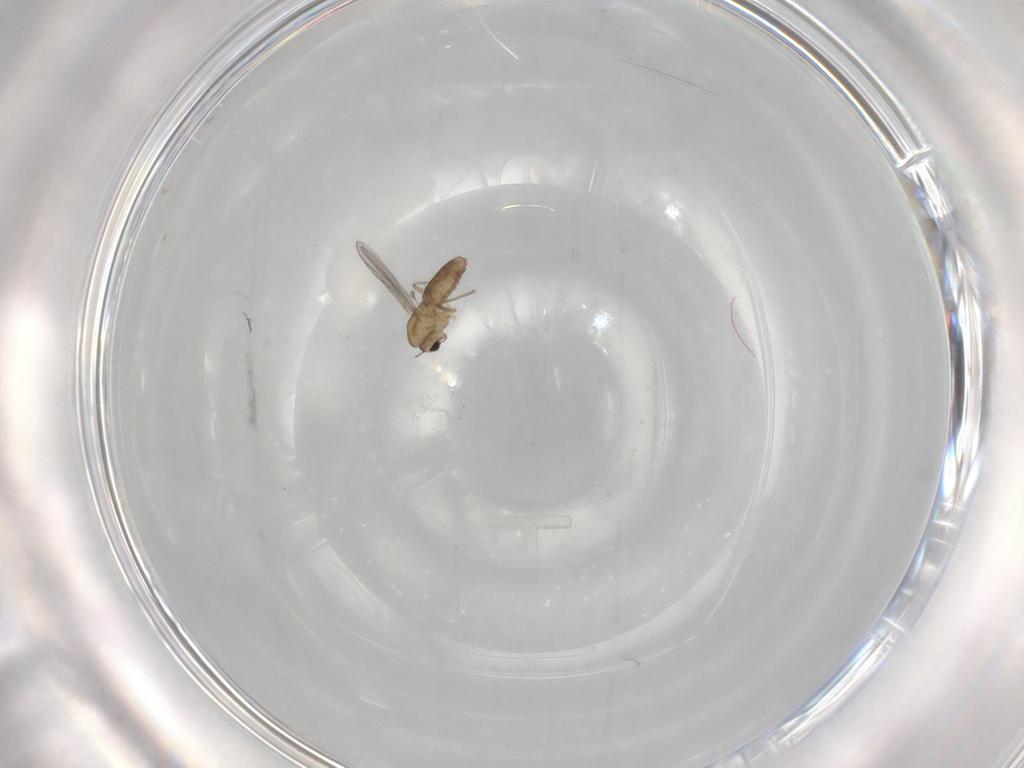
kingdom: Animalia
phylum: Arthropoda
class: Insecta
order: Diptera
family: Chironomidae
